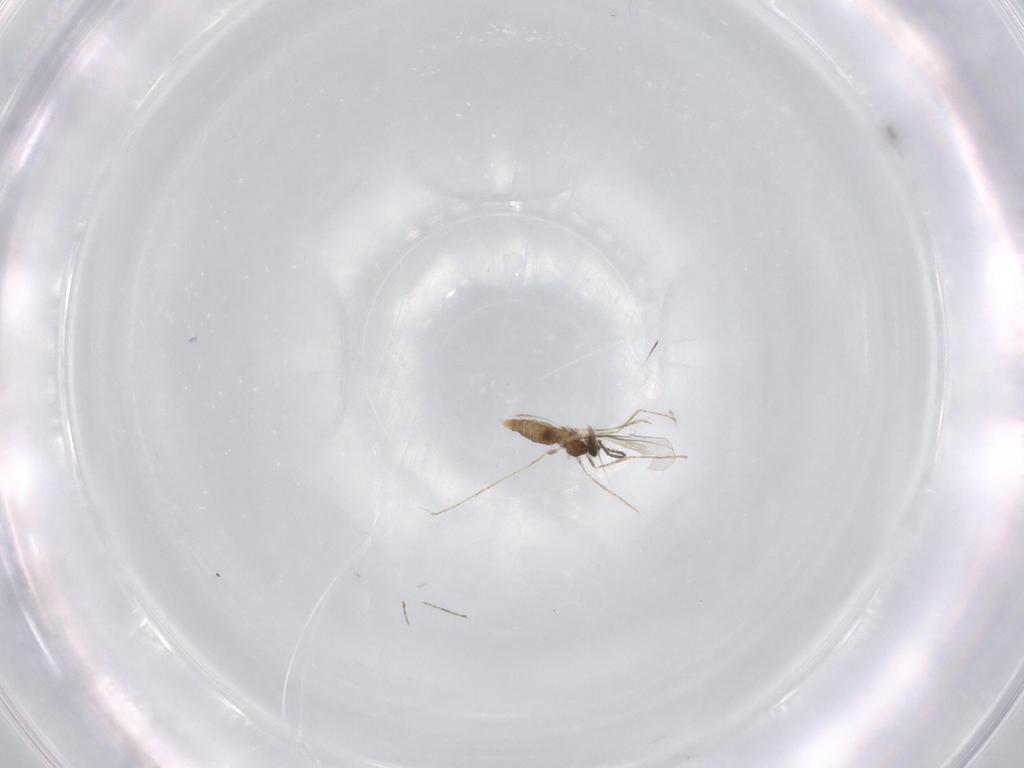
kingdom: Animalia
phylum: Arthropoda
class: Insecta
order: Diptera
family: Cecidomyiidae
